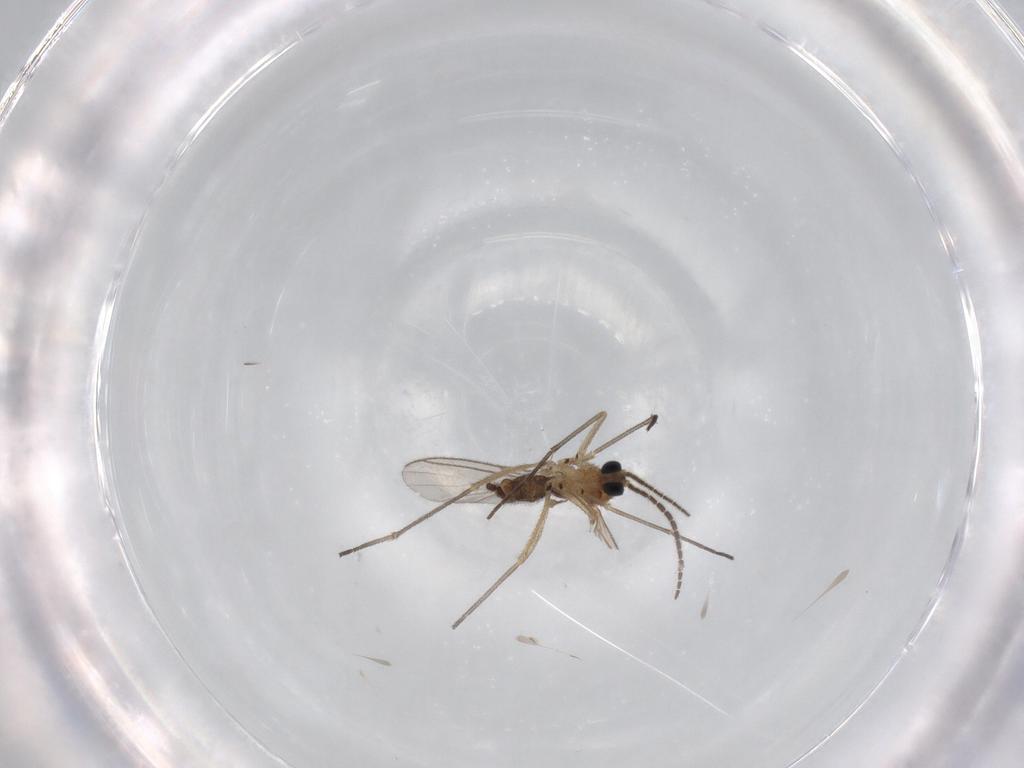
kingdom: Animalia
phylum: Arthropoda
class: Insecta
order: Diptera
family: Sciaridae
